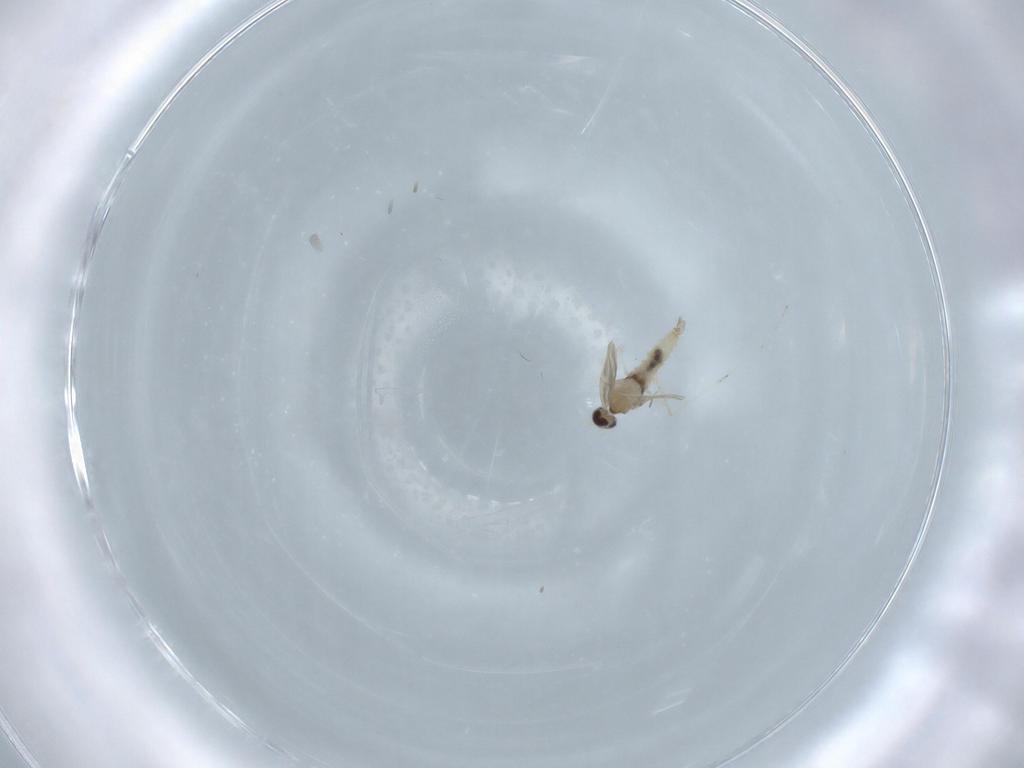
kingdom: Animalia
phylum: Arthropoda
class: Insecta
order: Diptera
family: Cecidomyiidae
